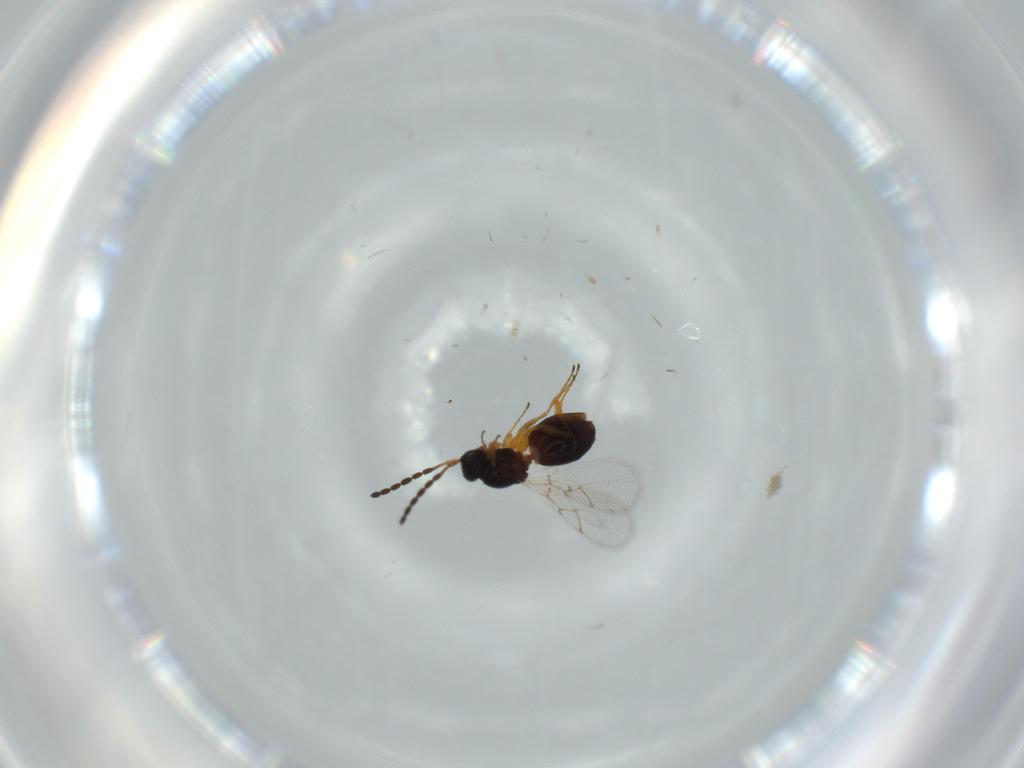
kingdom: Animalia
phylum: Arthropoda
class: Insecta
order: Hymenoptera
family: Figitidae
